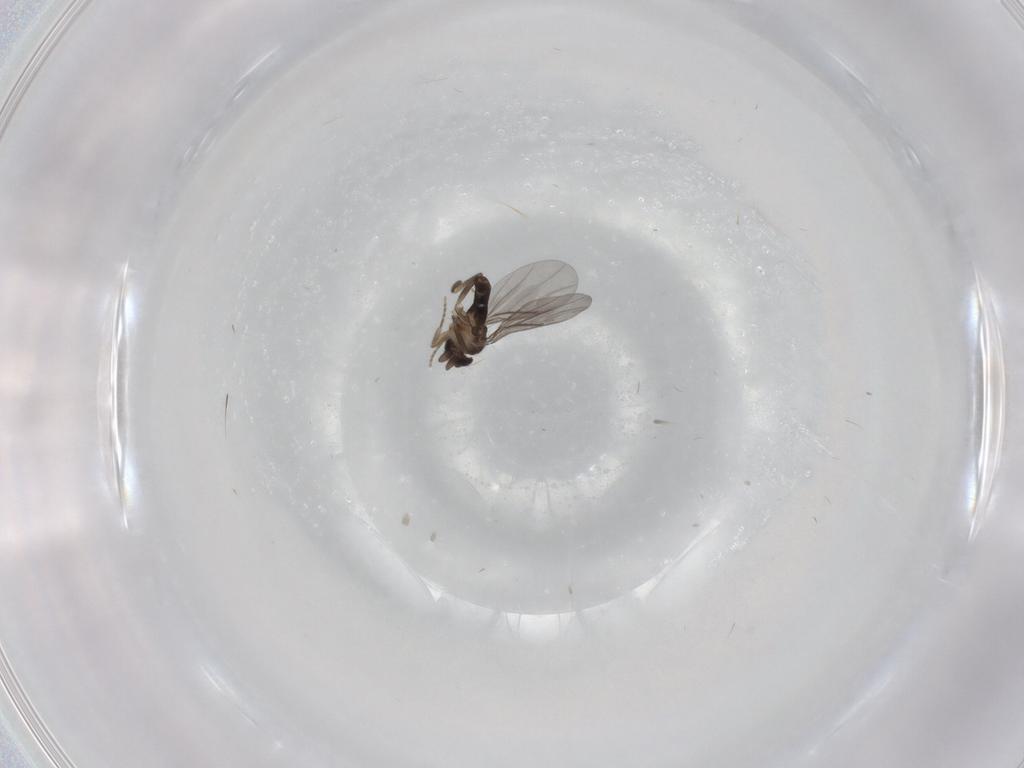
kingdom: Animalia
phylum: Arthropoda
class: Insecta
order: Diptera
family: Ceratopogonidae
